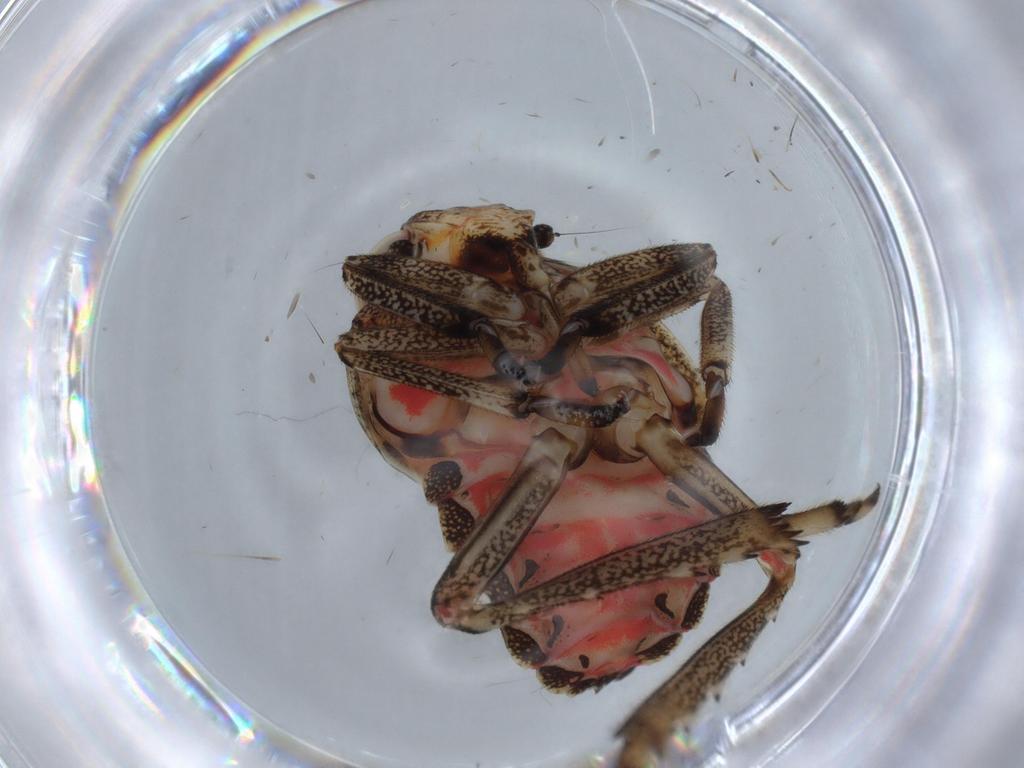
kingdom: Animalia
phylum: Arthropoda
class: Insecta
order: Hemiptera
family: Issidae
